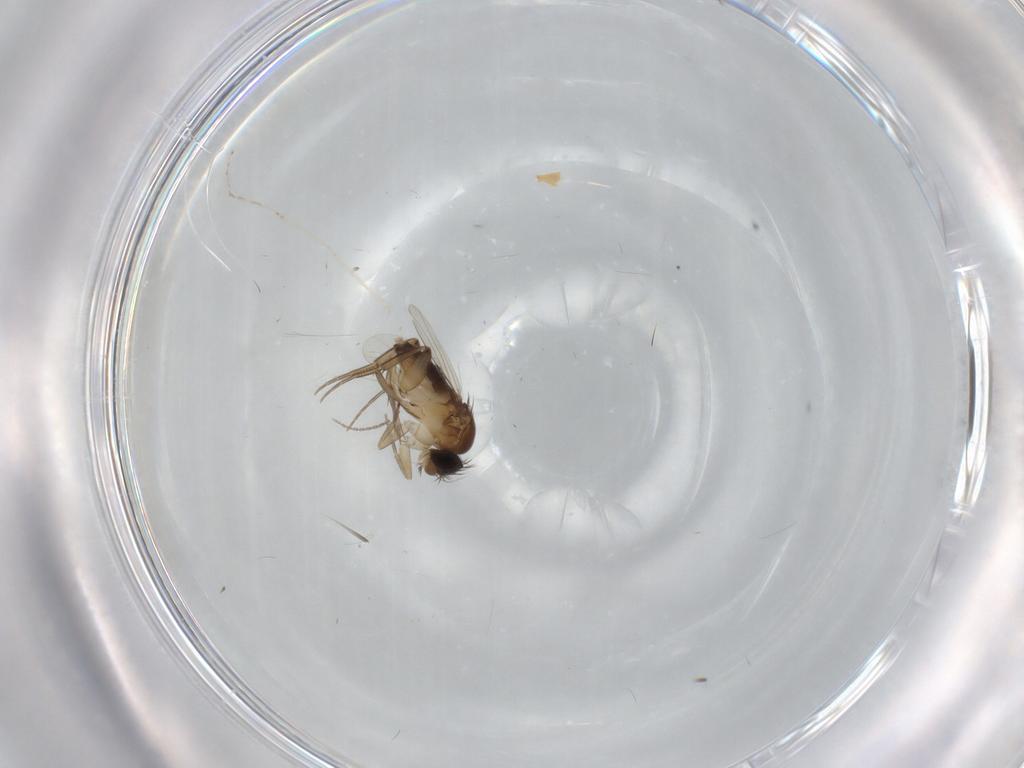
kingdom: Animalia
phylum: Arthropoda
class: Insecta
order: Diptera
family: Phoridae
